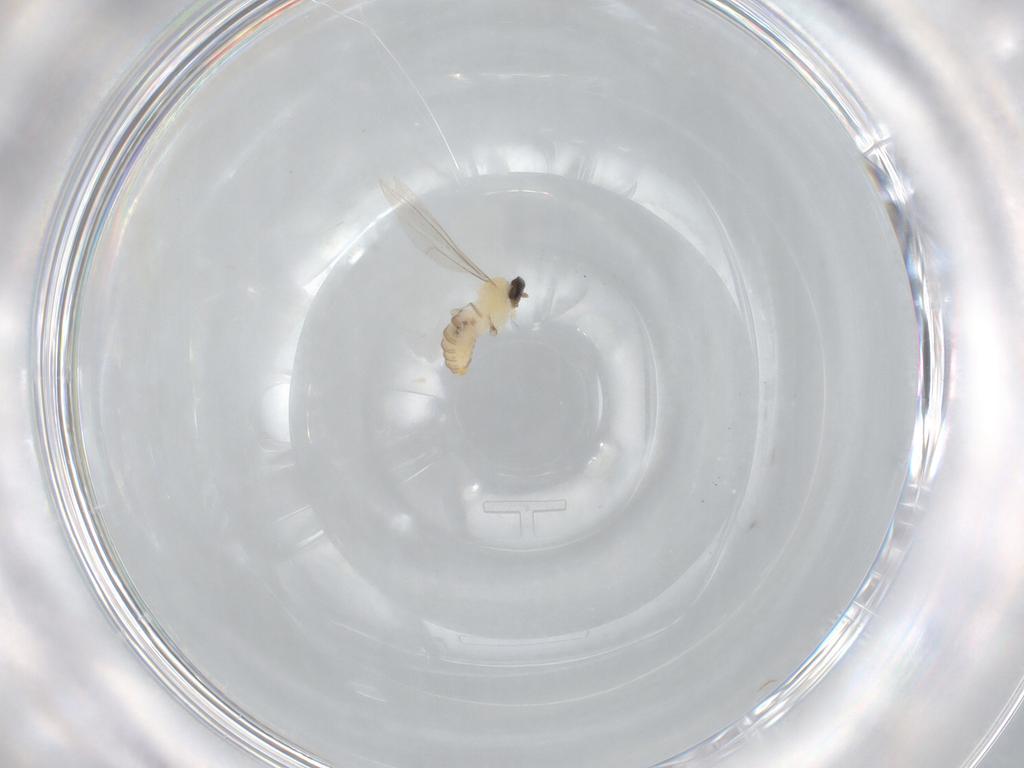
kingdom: Animalia
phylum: Arthropoda
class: Insecta
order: Diptera
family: Cecidomyiidae
